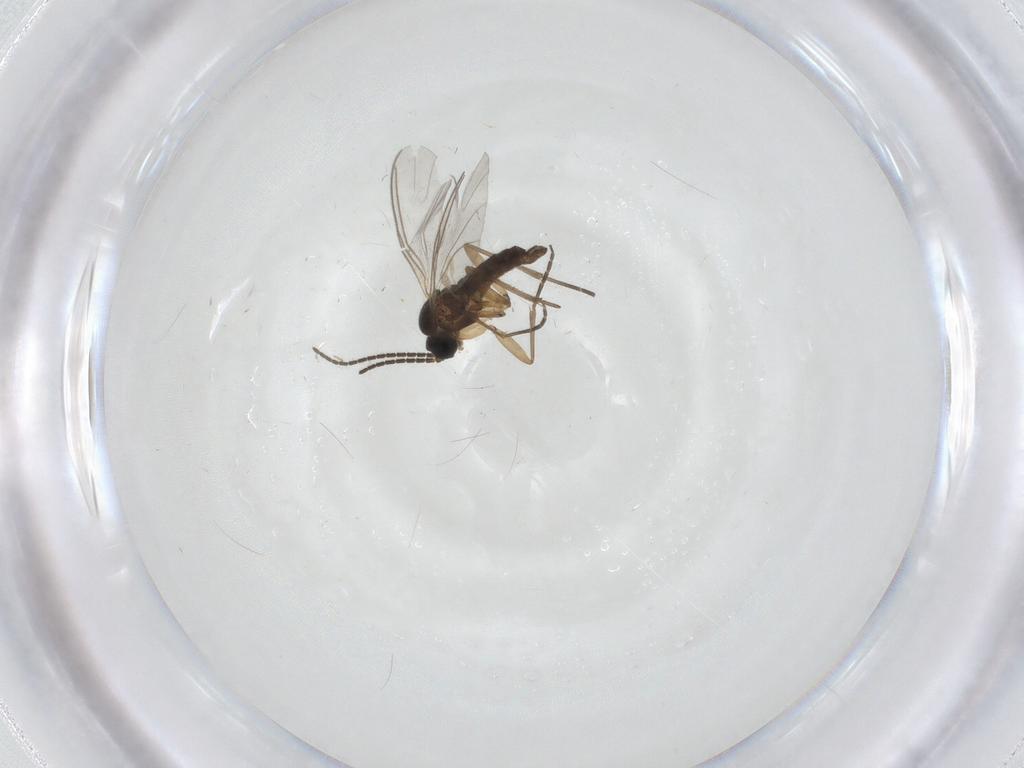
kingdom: Animalia
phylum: Arthropoda
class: Insecta
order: Diptera
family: Sciaridae
